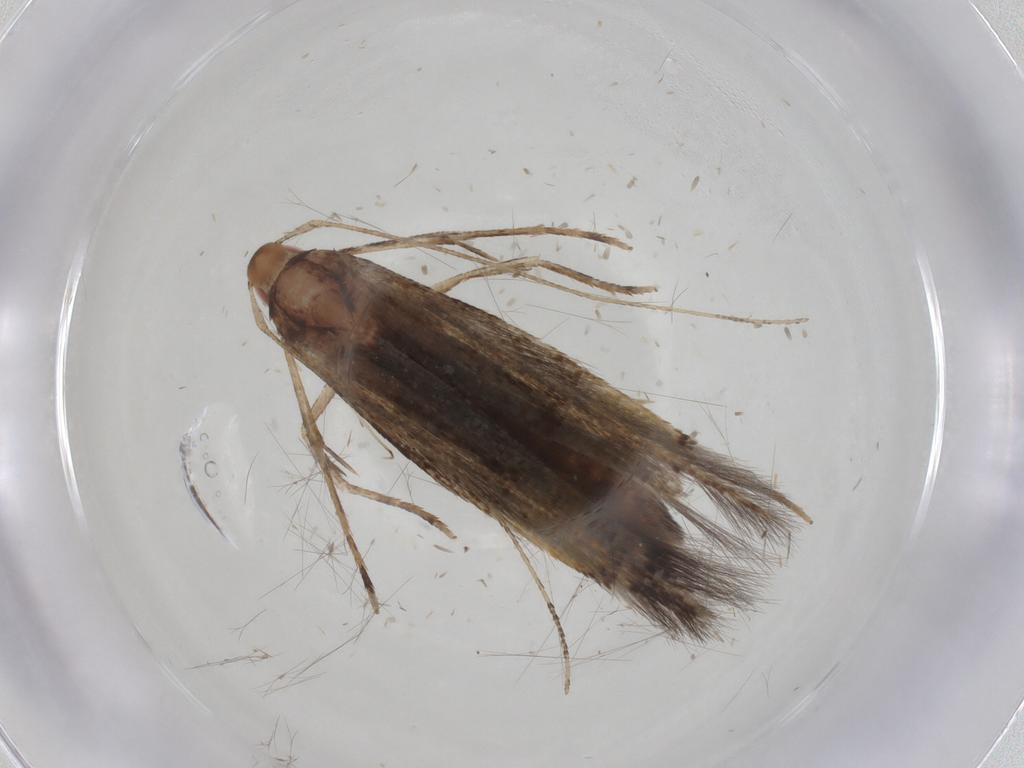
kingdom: Animalia
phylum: Arthropoda
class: Insecta
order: Lepidoptera
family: Cosmopterigidae
